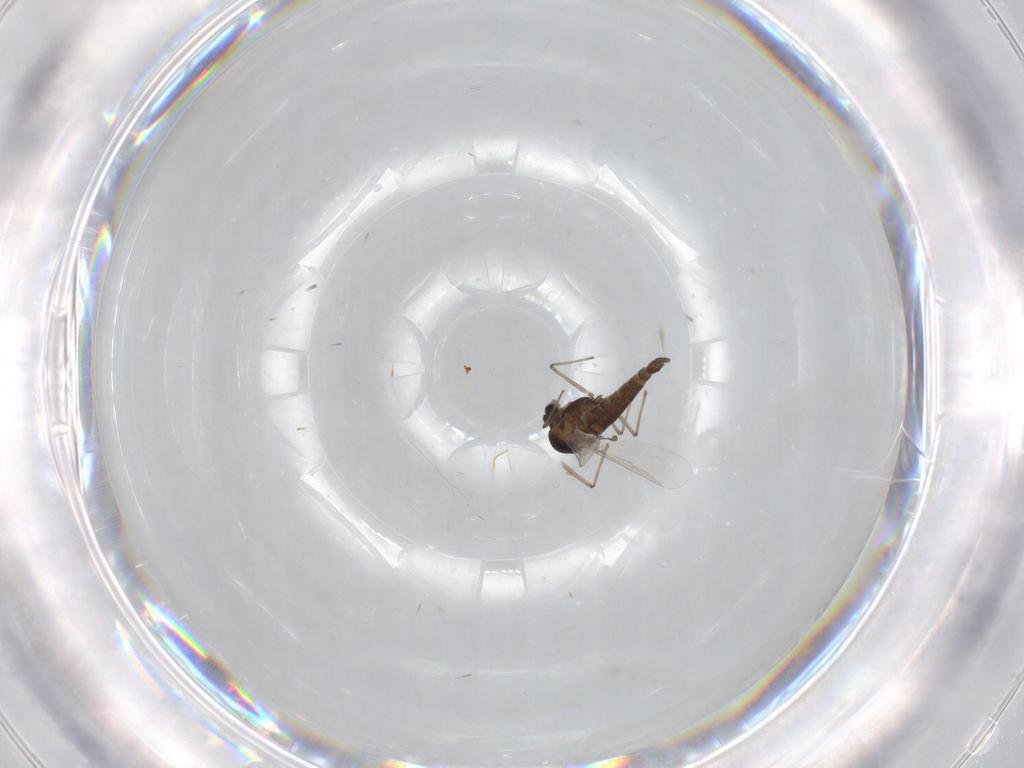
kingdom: Animalia
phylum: Arthropoda
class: Insecta
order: Diptera
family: Chironomidae
